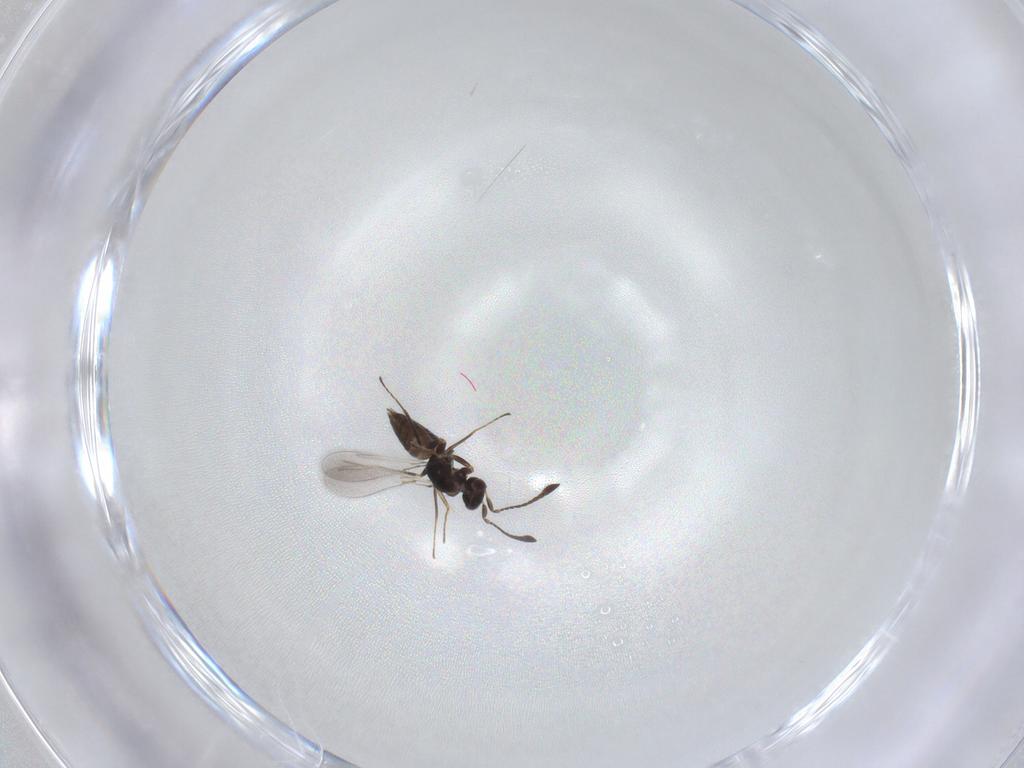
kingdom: Animalia
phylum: Arthropoda
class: Insecta
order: Hymenoptera
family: Mymaridae
